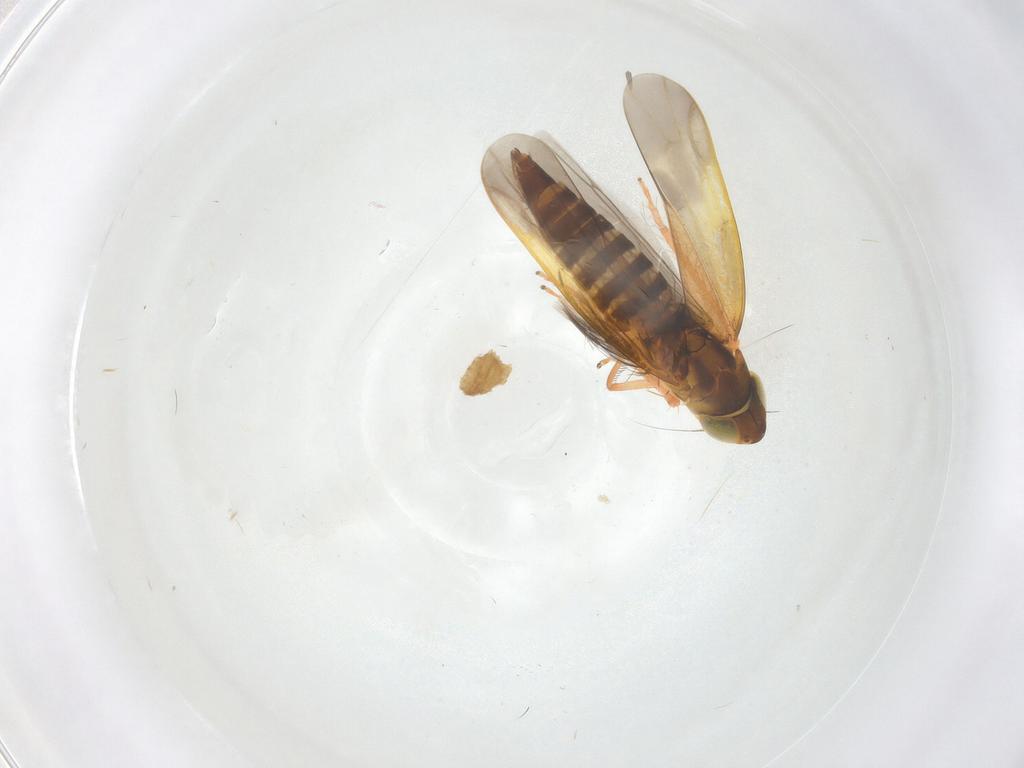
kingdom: Animalia
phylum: Arthropoda
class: Insecta
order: Hemiptera
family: Cicadellidae
